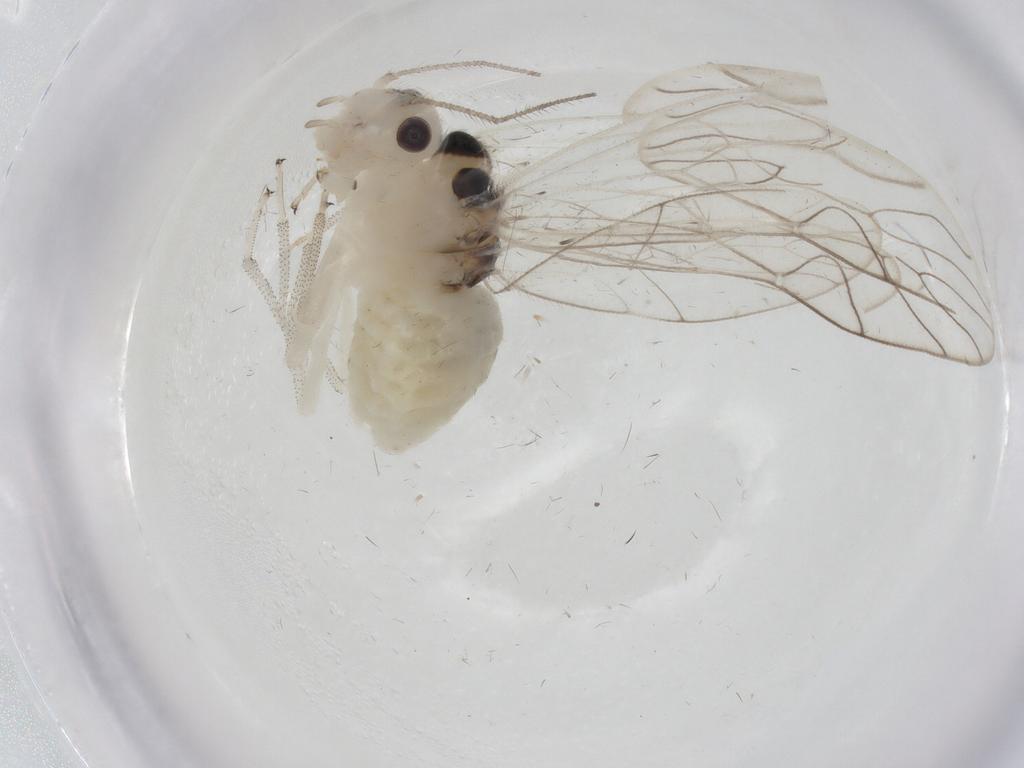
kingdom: Animalia
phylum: Arthropoda
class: Insecta
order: Psocodea
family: Amphipsocidae
